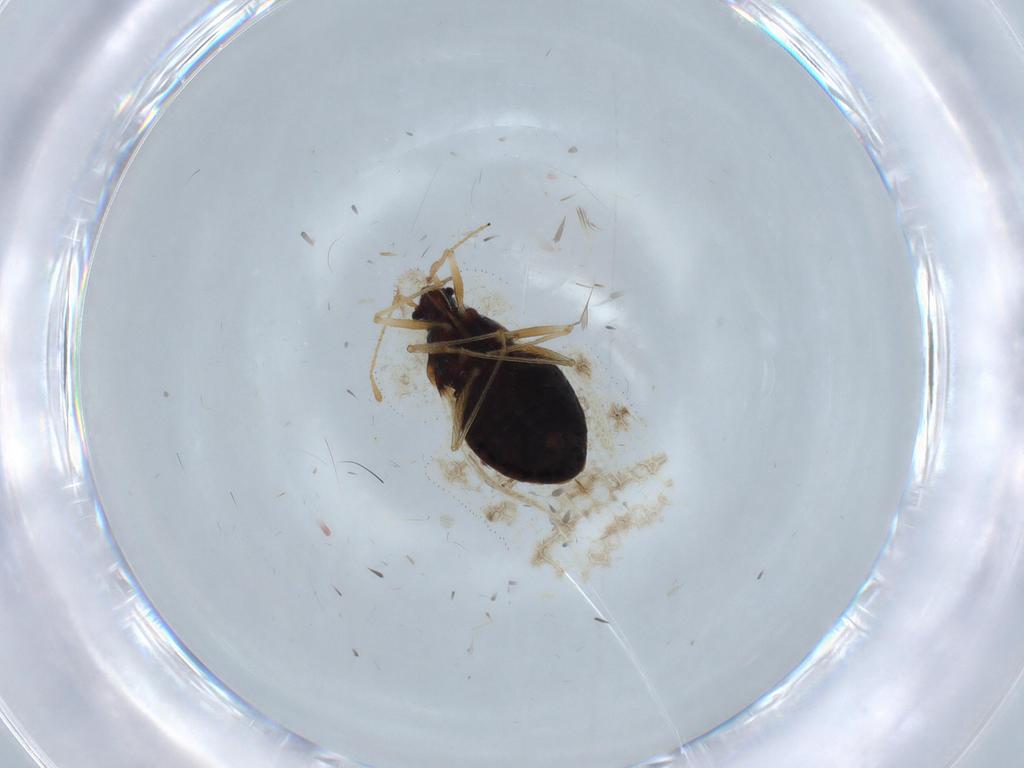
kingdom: Animalia
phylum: Arthropoda
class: Insecta
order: Hemiptera
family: Tingidae
